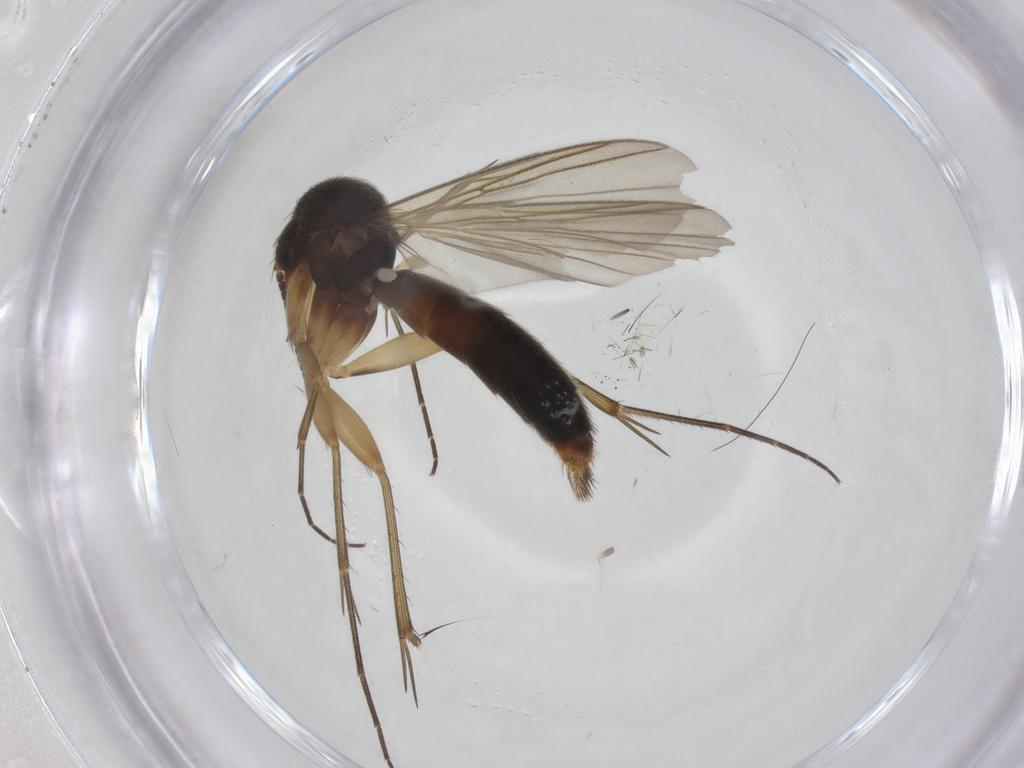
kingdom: Animalia
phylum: Arthropoda
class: Insecta
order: Diptera
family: Mycetophilidae
